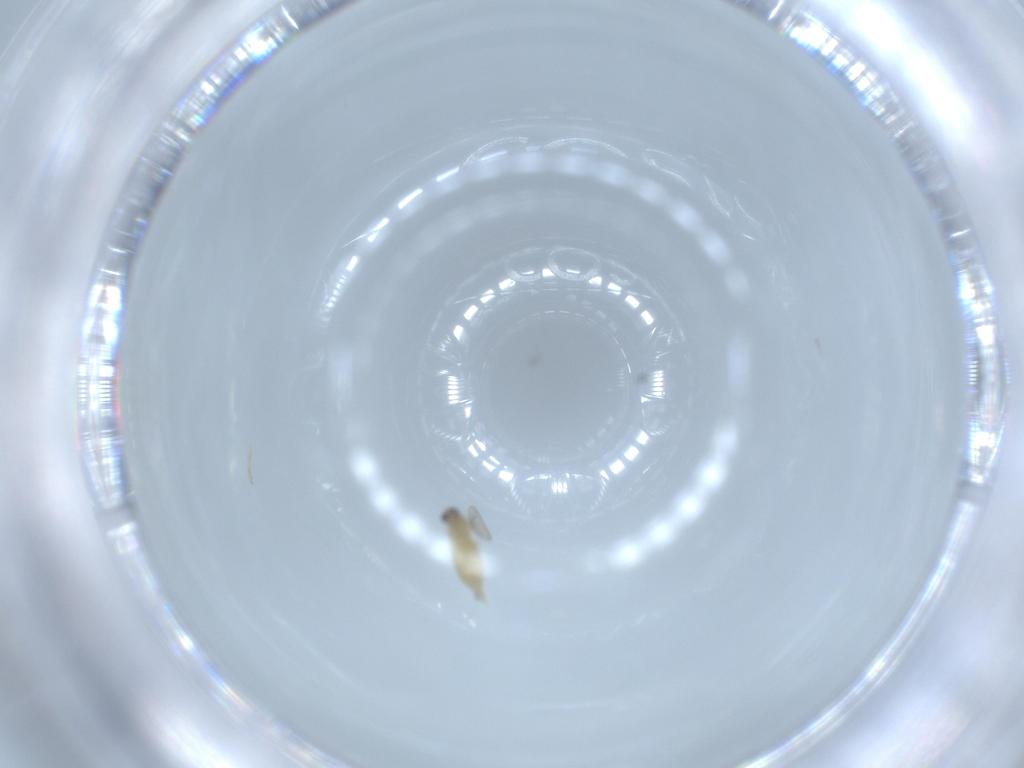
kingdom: Animalia
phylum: Arthropoda
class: Insecta
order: Diptera
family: Cecidomyiidae
